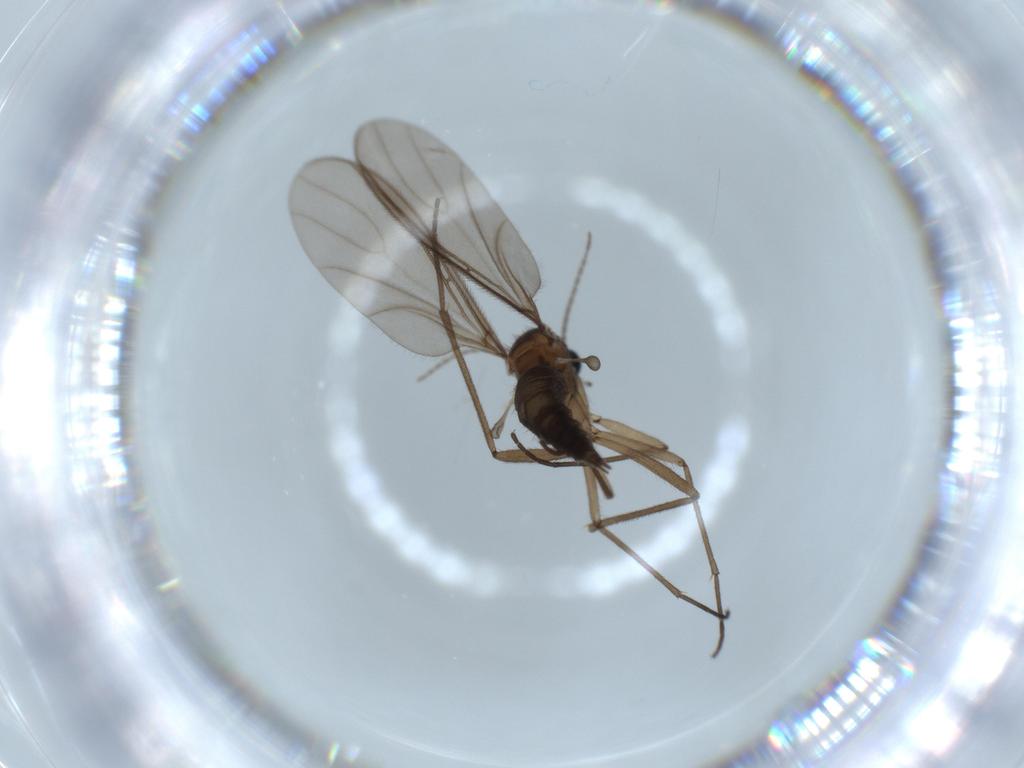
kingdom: Animalia
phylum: Arthropoda
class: Insecta
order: Diptera
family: Sciaridae
